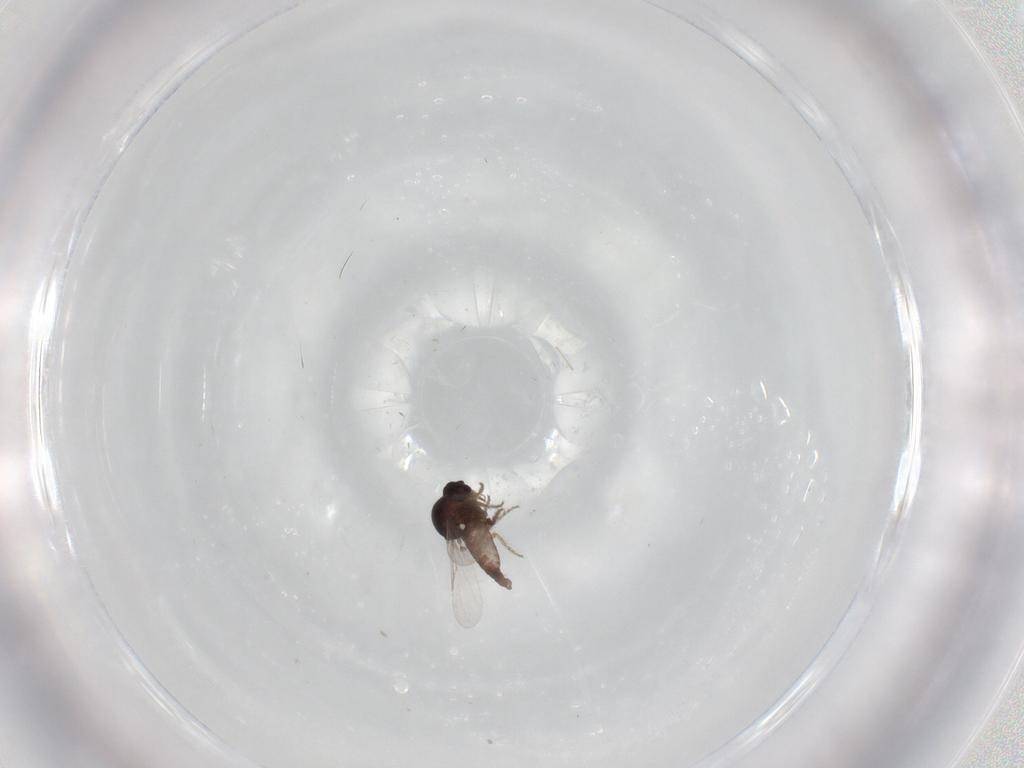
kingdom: Animalia
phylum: Arthropoda
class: Insecta
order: Diptera
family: Ceratopogonidae
